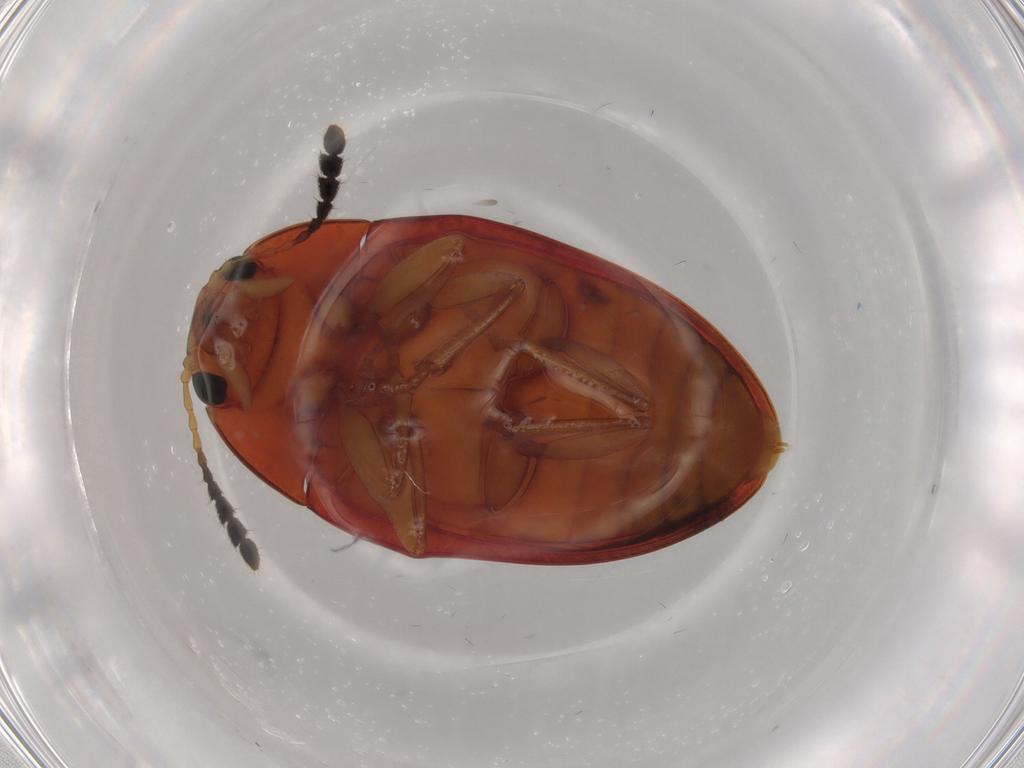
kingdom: Animalia
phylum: Arthropoda
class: Insecta
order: Coleoptera
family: Erotylidae
